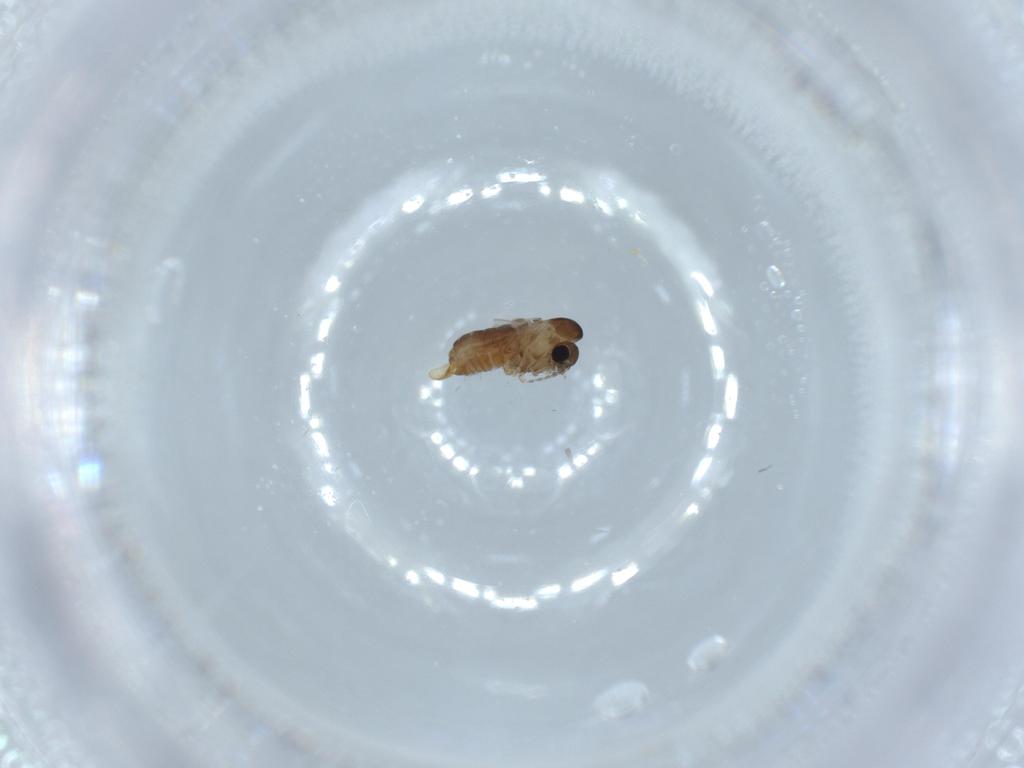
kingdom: Animalia
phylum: Arthropoda
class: Insecta
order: Diptera
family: Psychodidae
